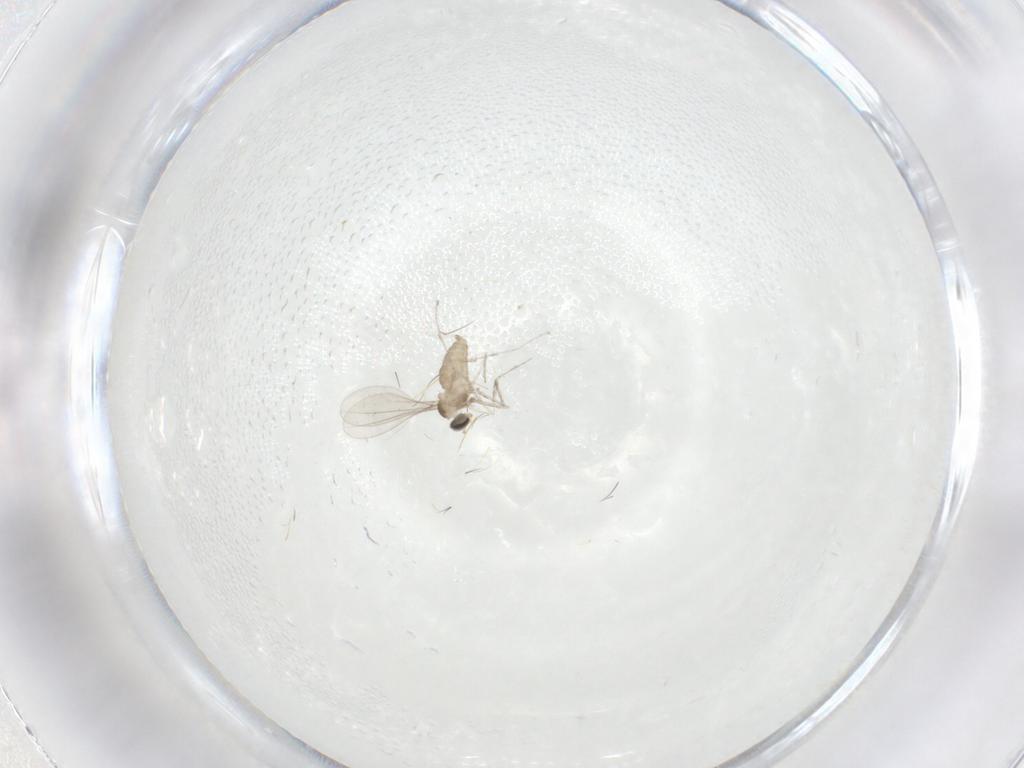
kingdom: Animalia
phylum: Arthropoda
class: Insecta
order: Diptera
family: Cecidomyiidae
